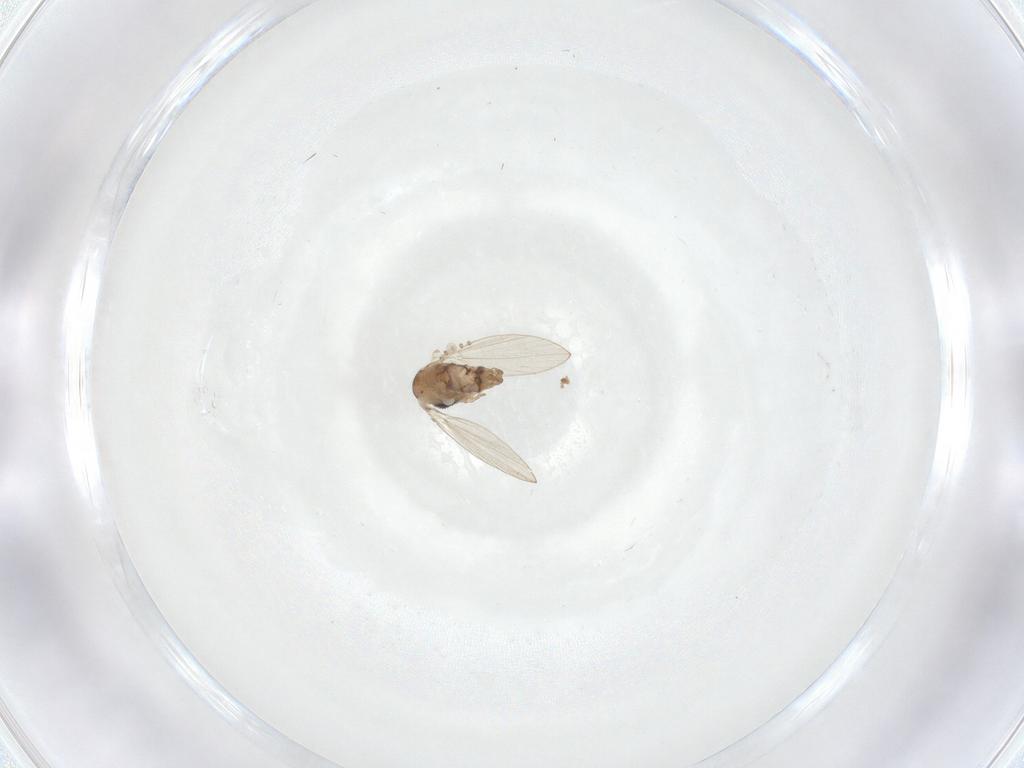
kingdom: Animalia
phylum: Arthropoda
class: Insecta
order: Diptera
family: Psychodidae
